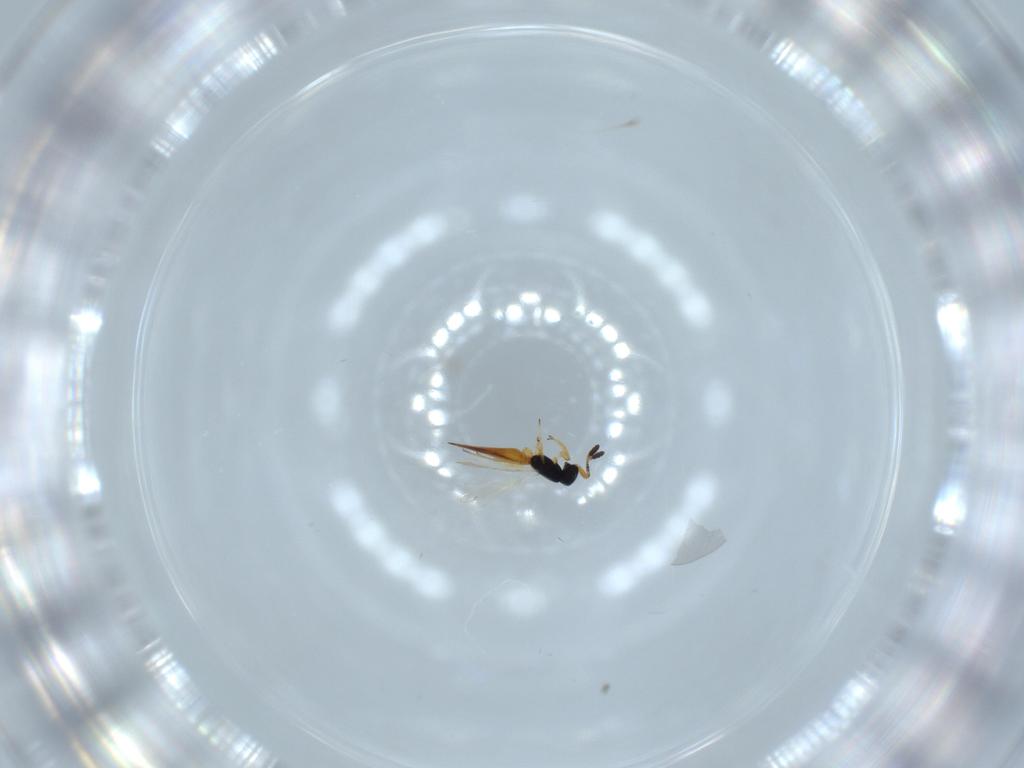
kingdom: Animalia
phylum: Arthropoda
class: Insecta
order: Hymenoptera
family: Scelionidae
